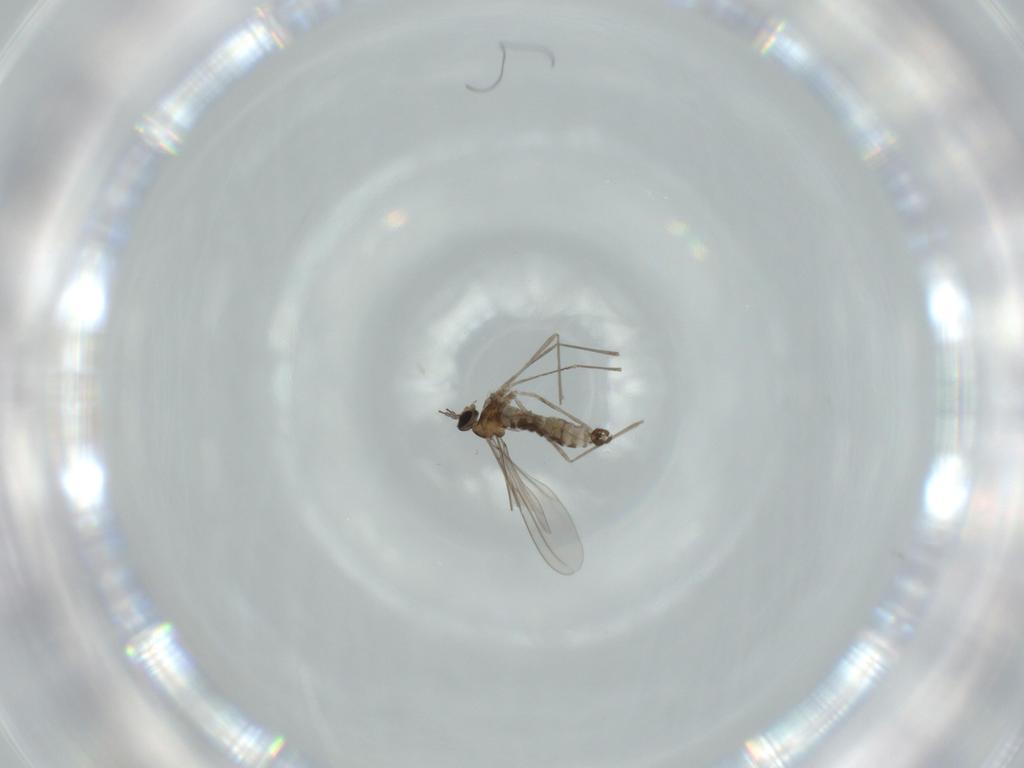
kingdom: Animalia
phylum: Arthropoda
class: Insecta
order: Diptera
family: Cecidomyiidae
